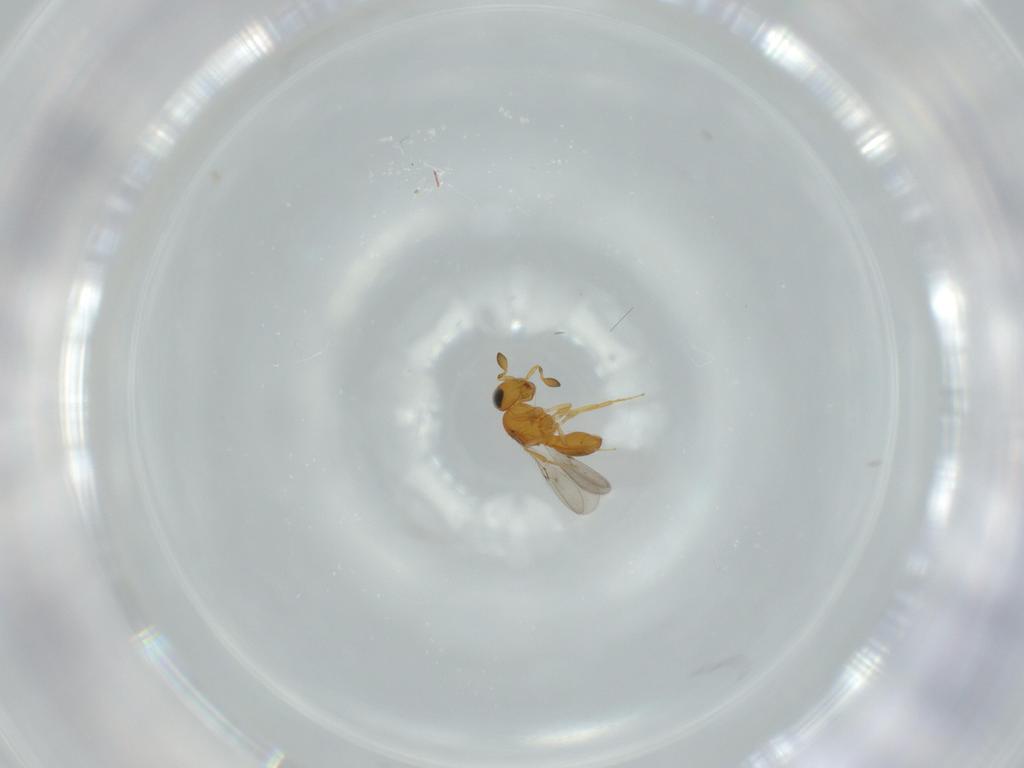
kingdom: Animalia
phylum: Arthropoda
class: Insecta
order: Hymenoptera
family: Scelionidae
